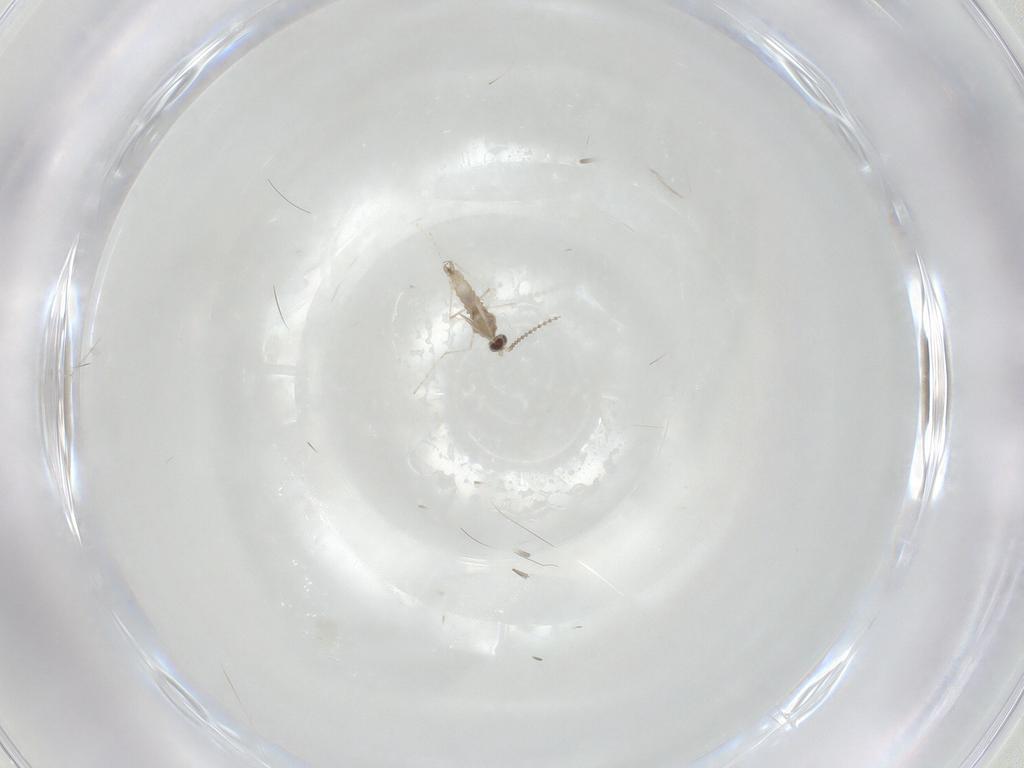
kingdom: Animalia
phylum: Arthropoda
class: Insecta
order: Diptera
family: Cecidomyiidae
